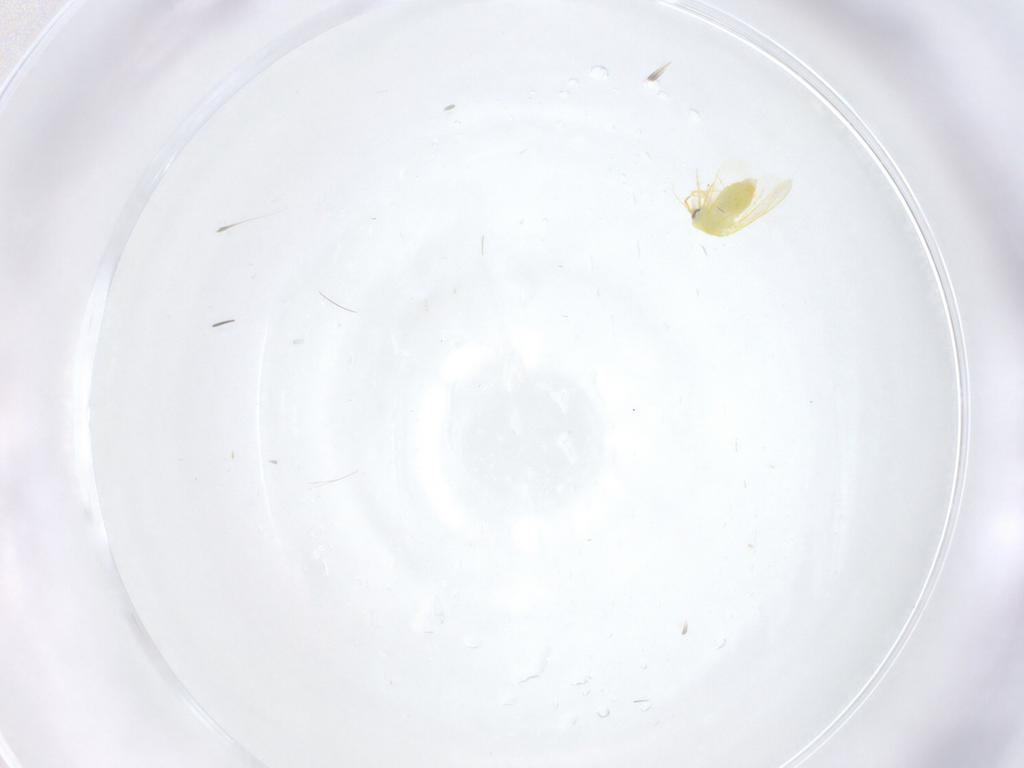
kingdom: Animalia
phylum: Arthropoda
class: Insecta
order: Hemiptera
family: Aleyrodidae
